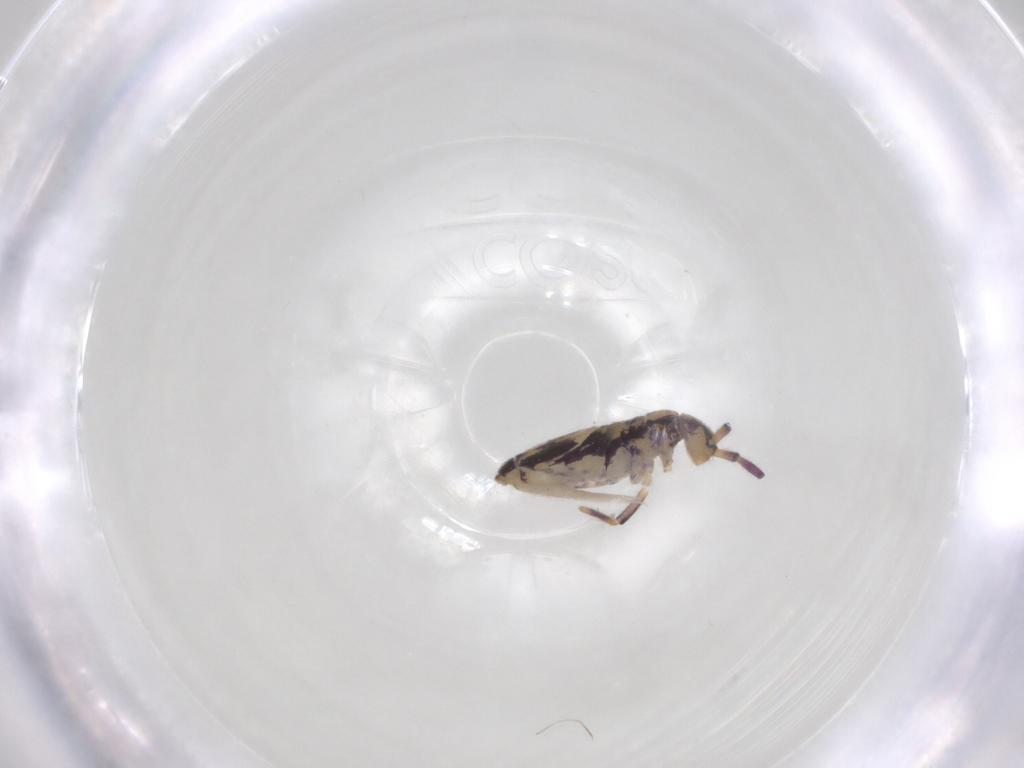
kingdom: Animalia
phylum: Arthropoda
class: Collembola
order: Entomobryomorpha
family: Entomobryidae
